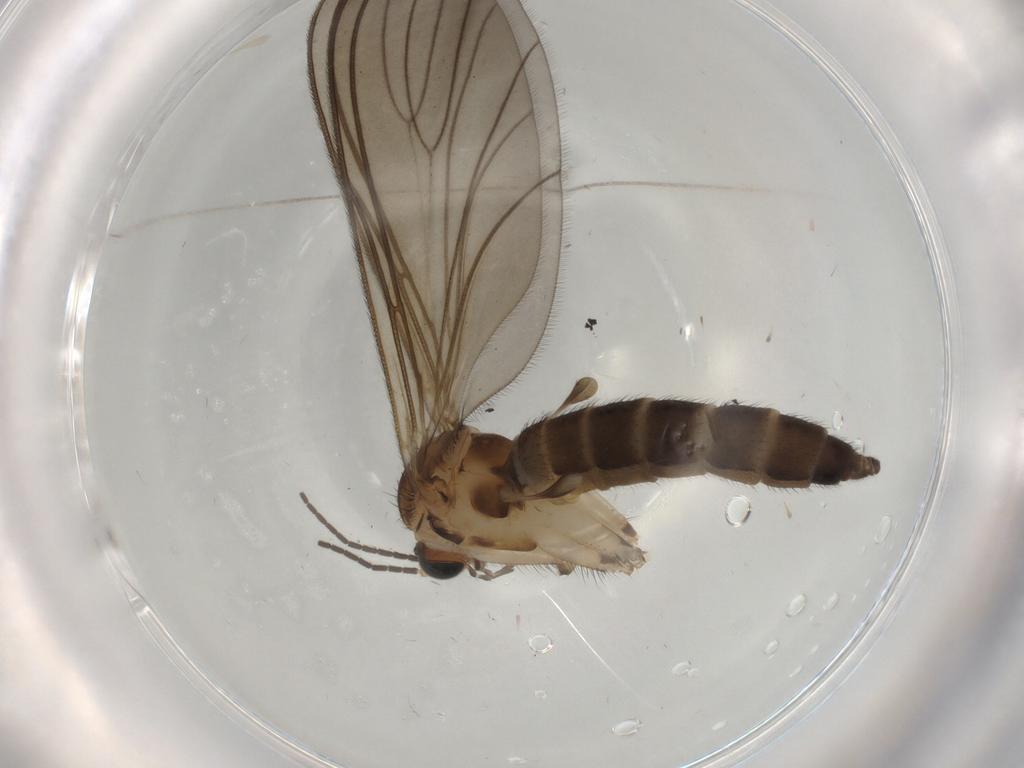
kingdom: Animalia
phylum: Arthropoda
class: Insecta
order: Diptera
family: Sciaridae
